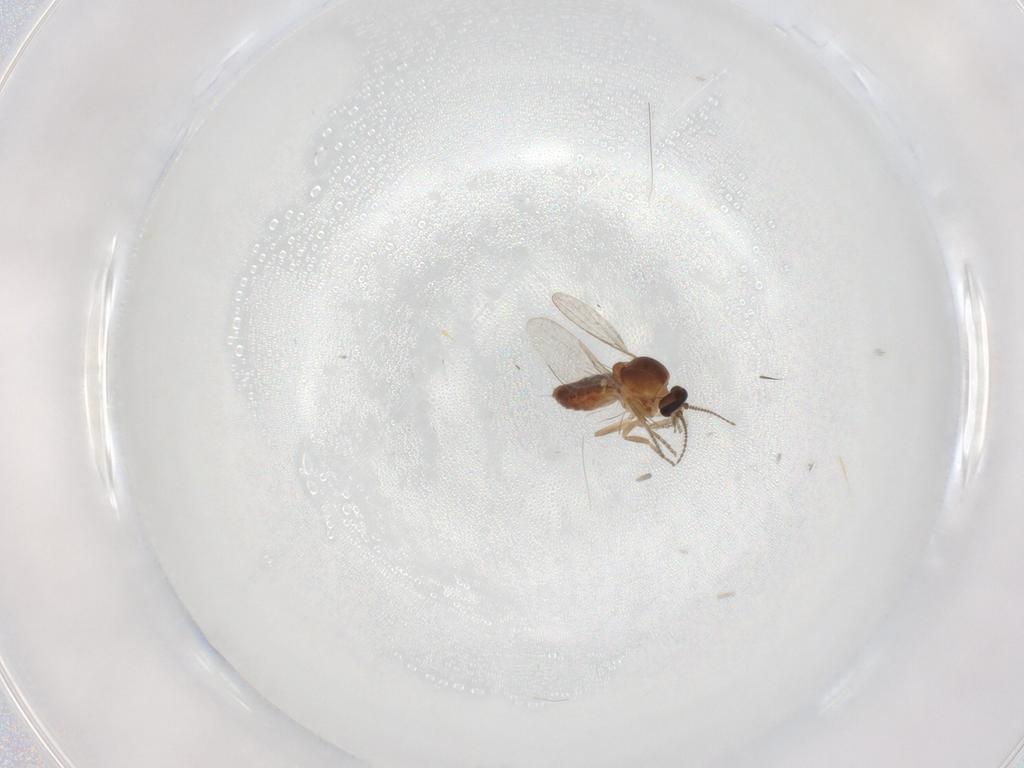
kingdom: Animalia
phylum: Arthropoda
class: Insecta
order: Diptera
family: Ceratopogonidae
